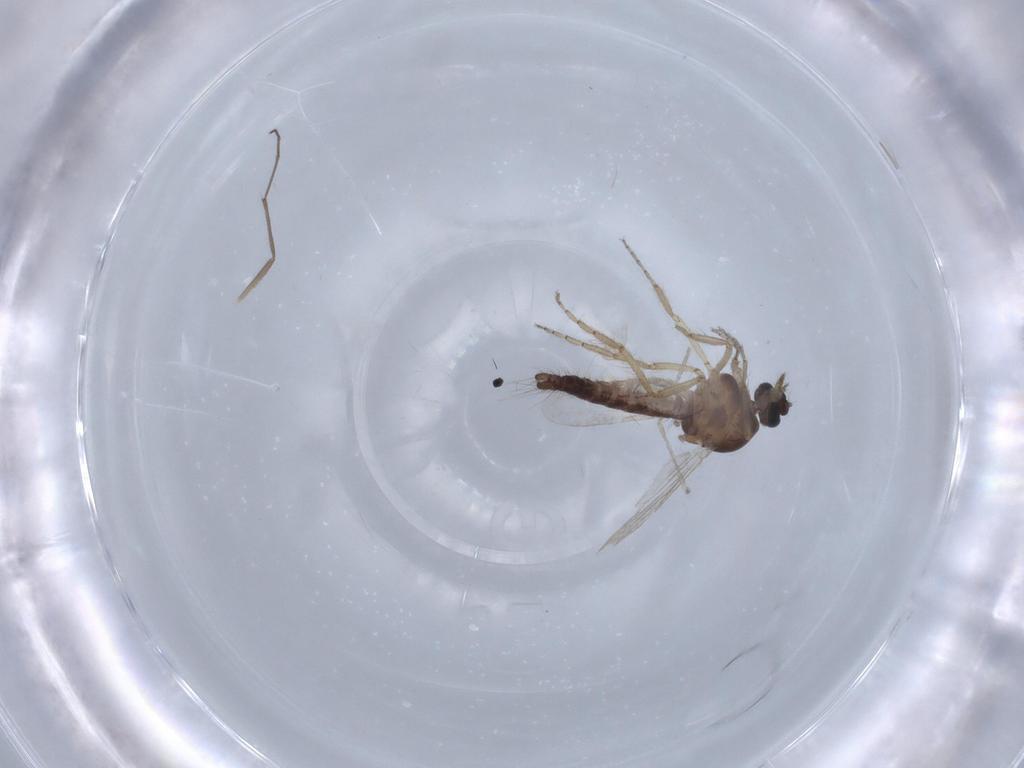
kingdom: Animalia
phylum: Arthropoda
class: Insecta
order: Diptera
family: Ceratopogonidae
